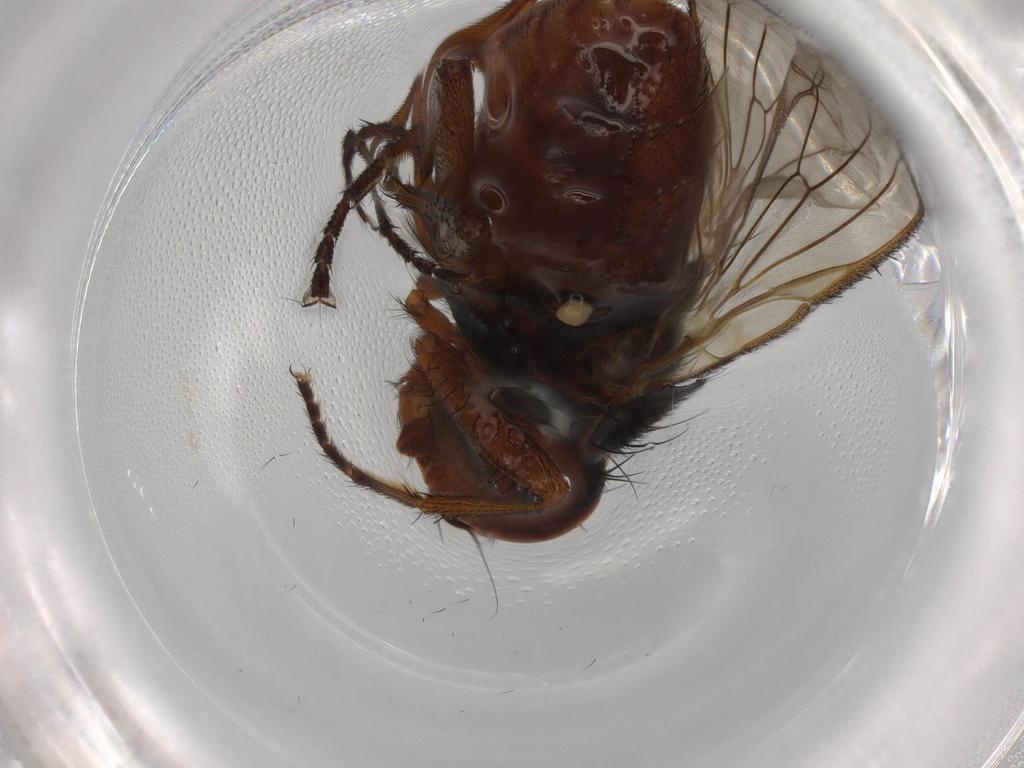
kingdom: Animalia
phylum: Arthropoda
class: Insecta
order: Diptera
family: Heleomyzidae
